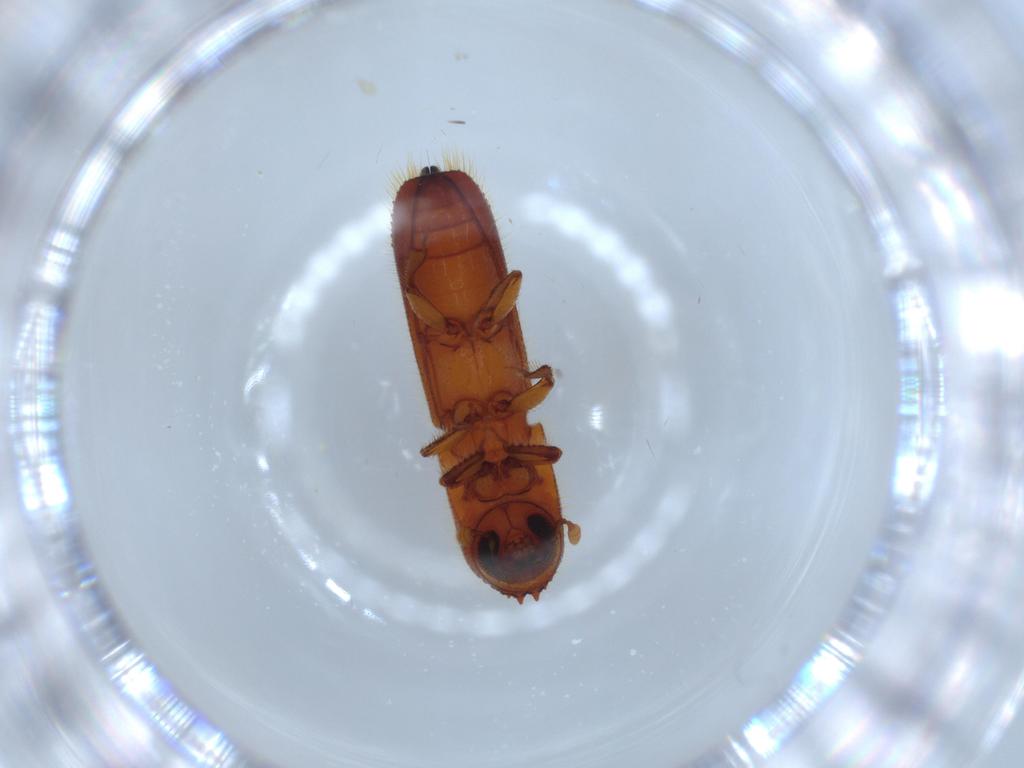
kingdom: Animalia
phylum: Arthropoda
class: Insecta
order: Coleoptera
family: Curculionidae
